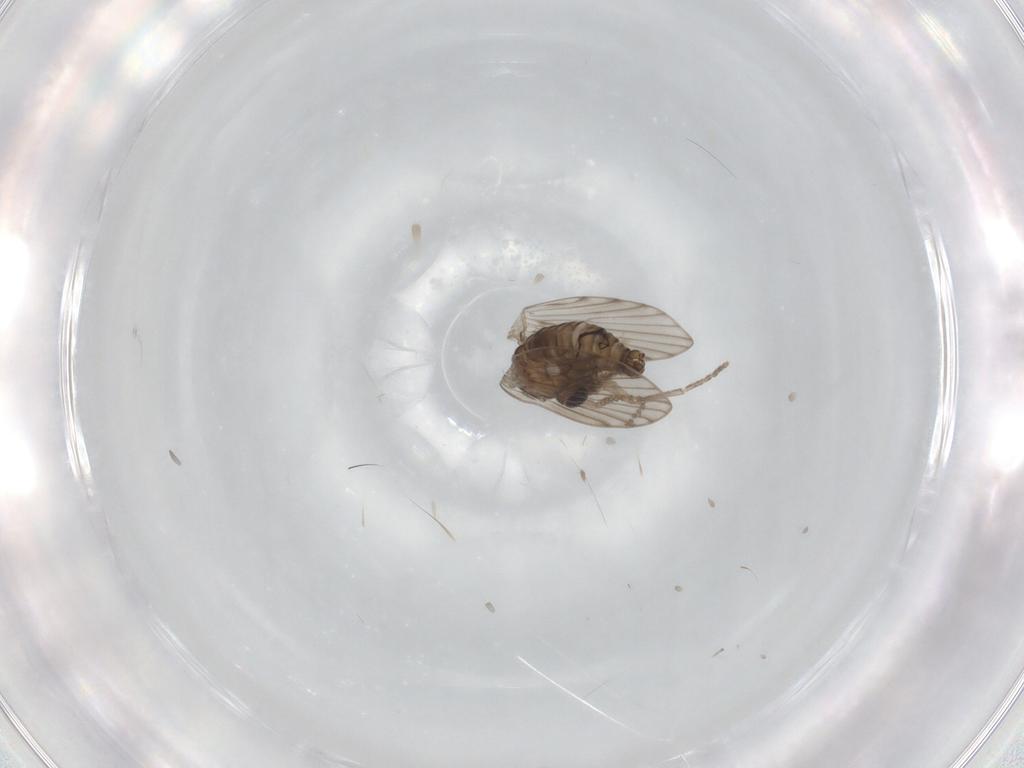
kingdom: Animalia
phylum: Arthropoda
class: Insecta
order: Diptera
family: Psychodidae
